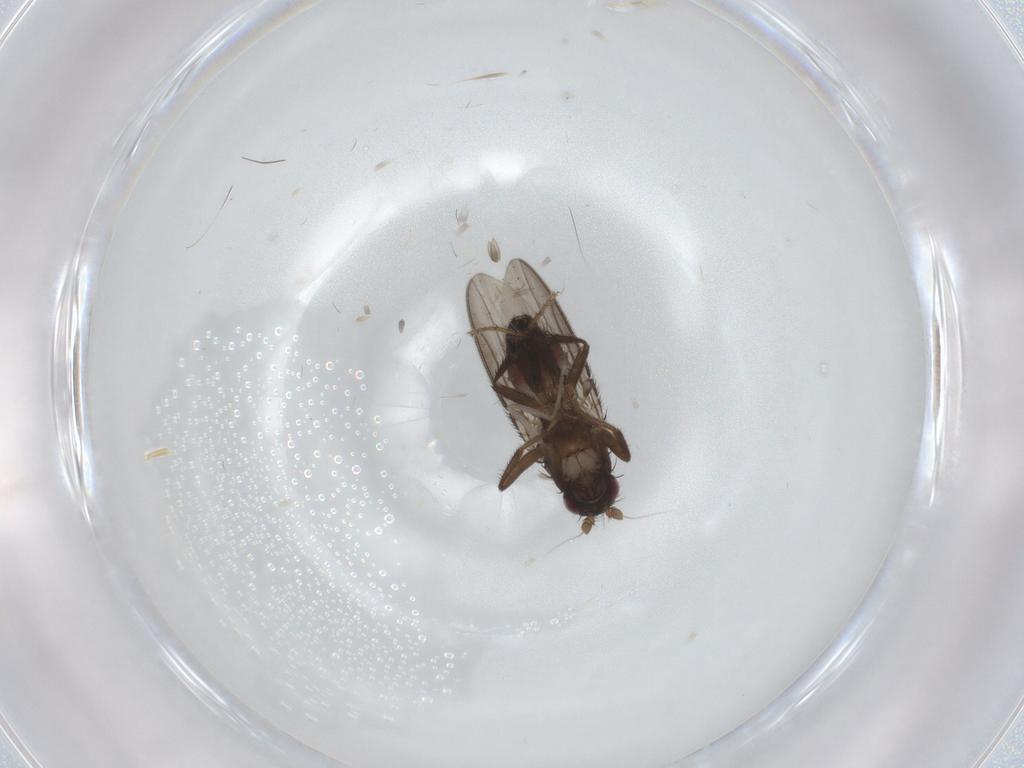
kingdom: Animalia
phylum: Arthropoda
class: Insecta
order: Diptera
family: Sphaeroceridae
